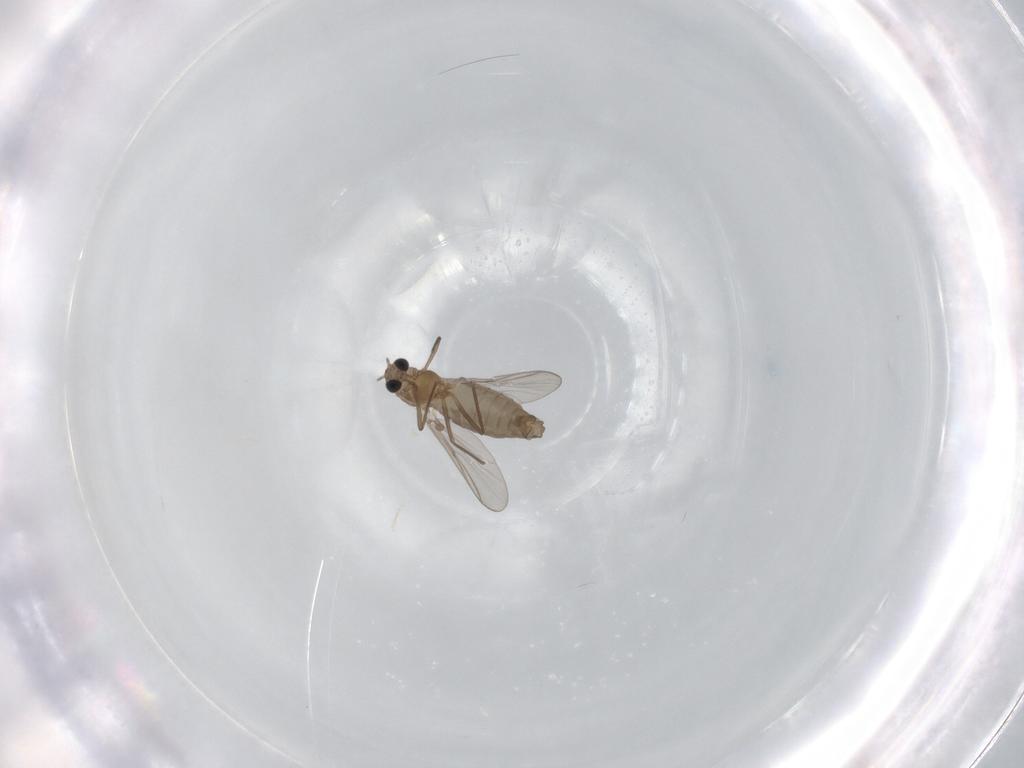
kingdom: Animalia
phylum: Arthropoda
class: Insecta
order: Diptera
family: Chironomidae
